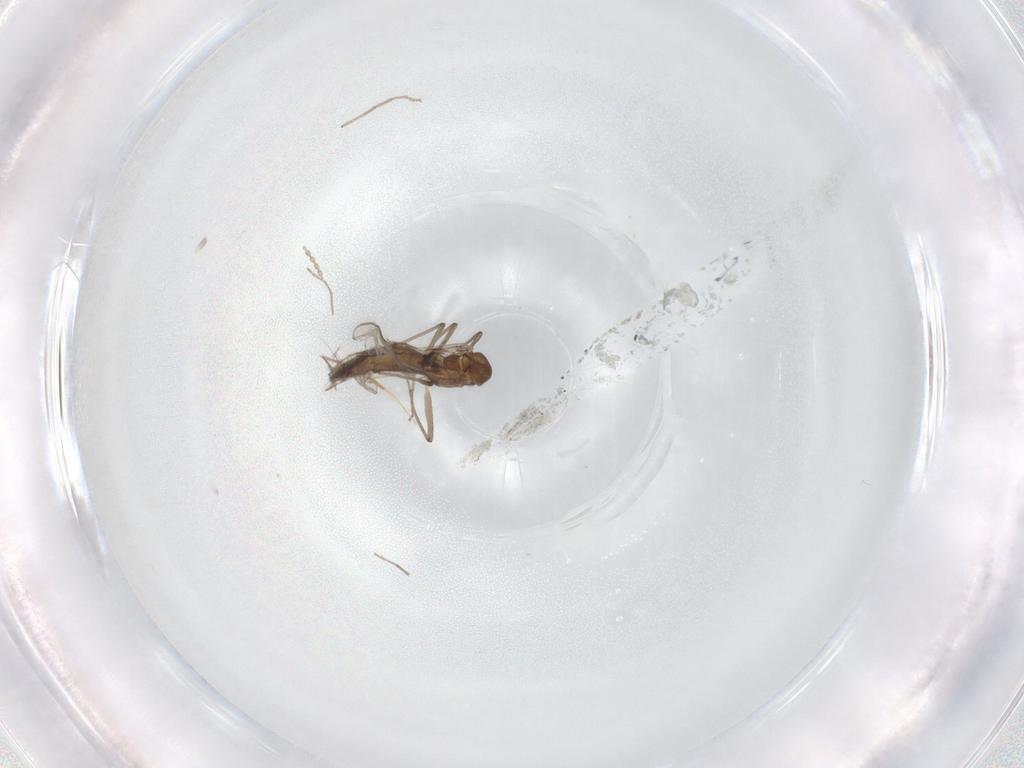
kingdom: Animalia
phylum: Arthropoda
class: Insecta
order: Diptera
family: Chironomidae
